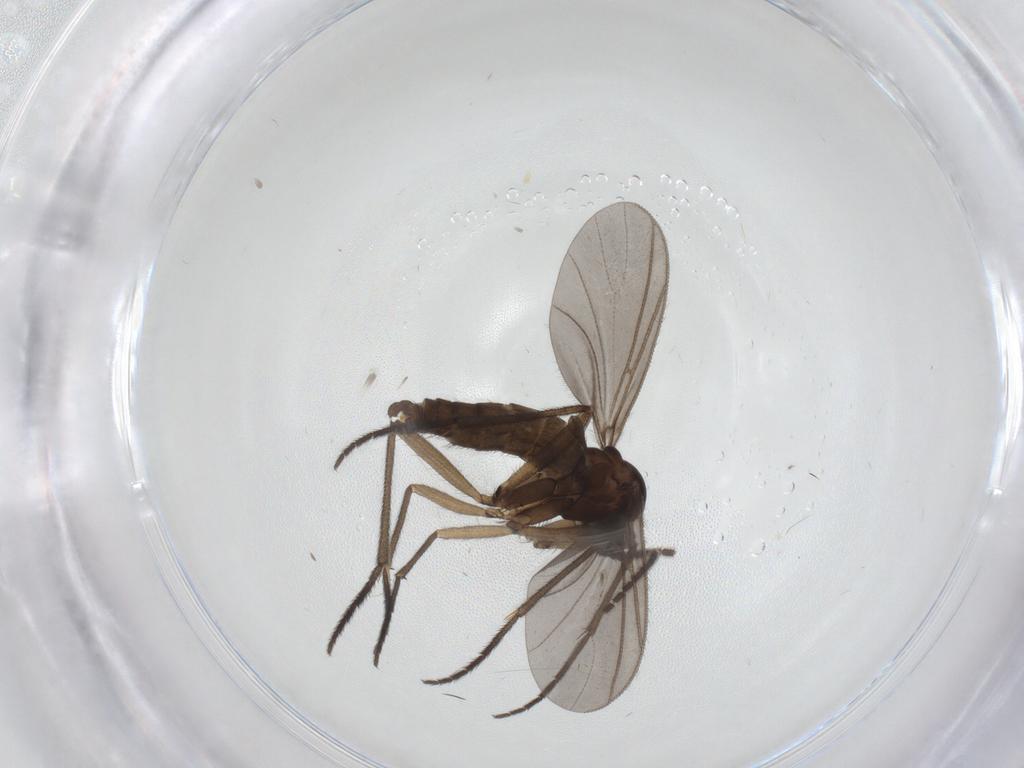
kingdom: Animalia
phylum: Arthropoda
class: Insecta
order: Diptera
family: Sciaridae
